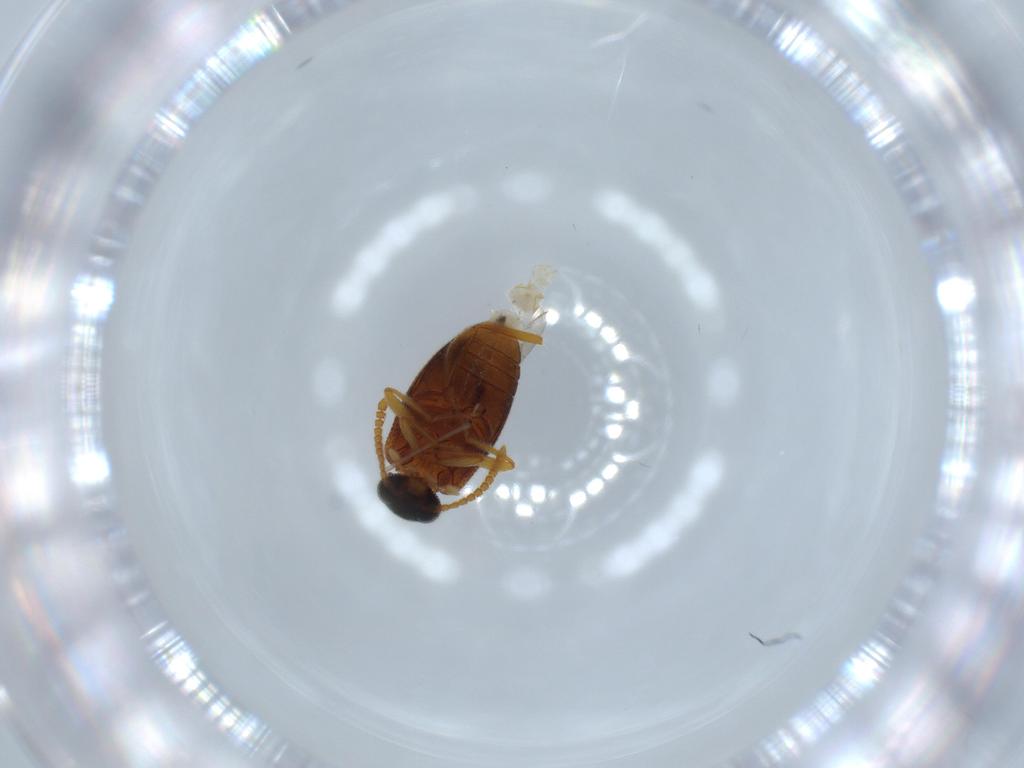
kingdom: Animalia
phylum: Arthropoda
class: Insecta
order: Coleoptera
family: Aderidae
